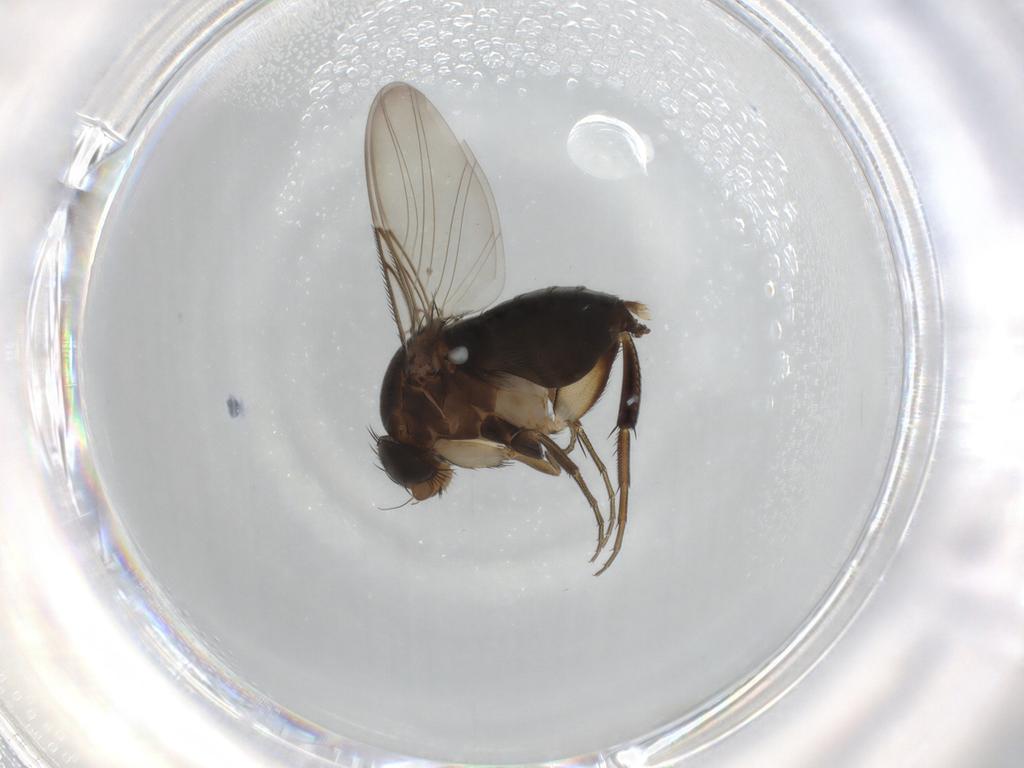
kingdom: Animalia
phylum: Arthropoda
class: Insecta
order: Diptera
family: Phoridae
